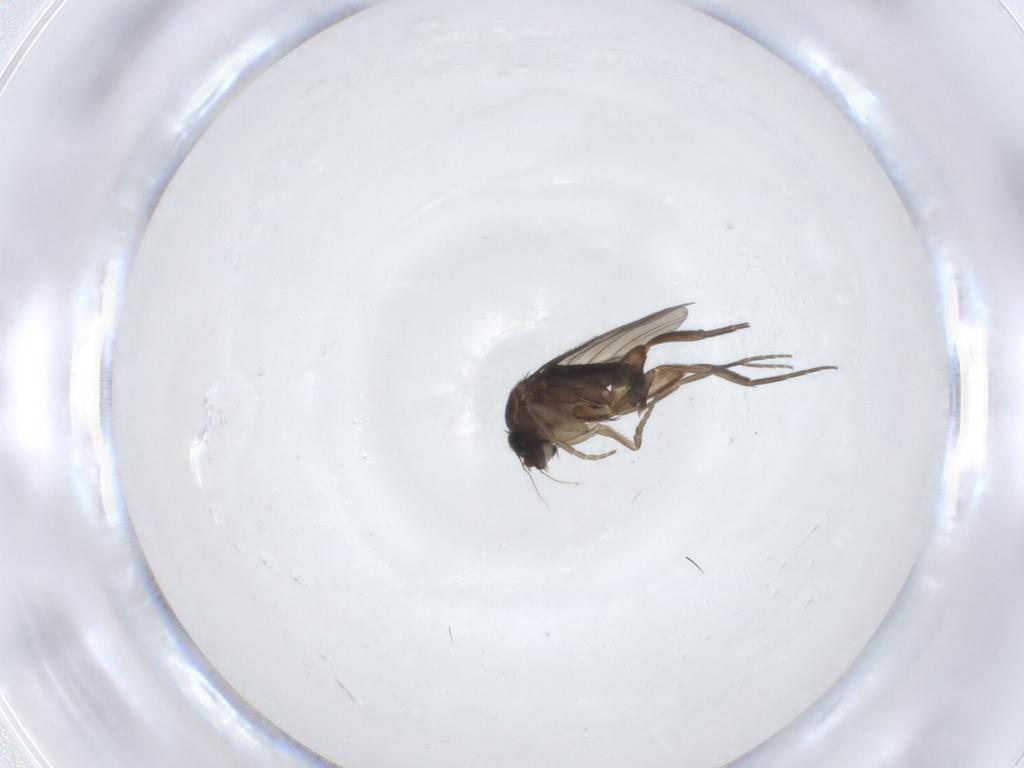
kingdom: Animalia
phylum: Arthropoda
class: Insecta
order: Diptera
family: Phoridae
